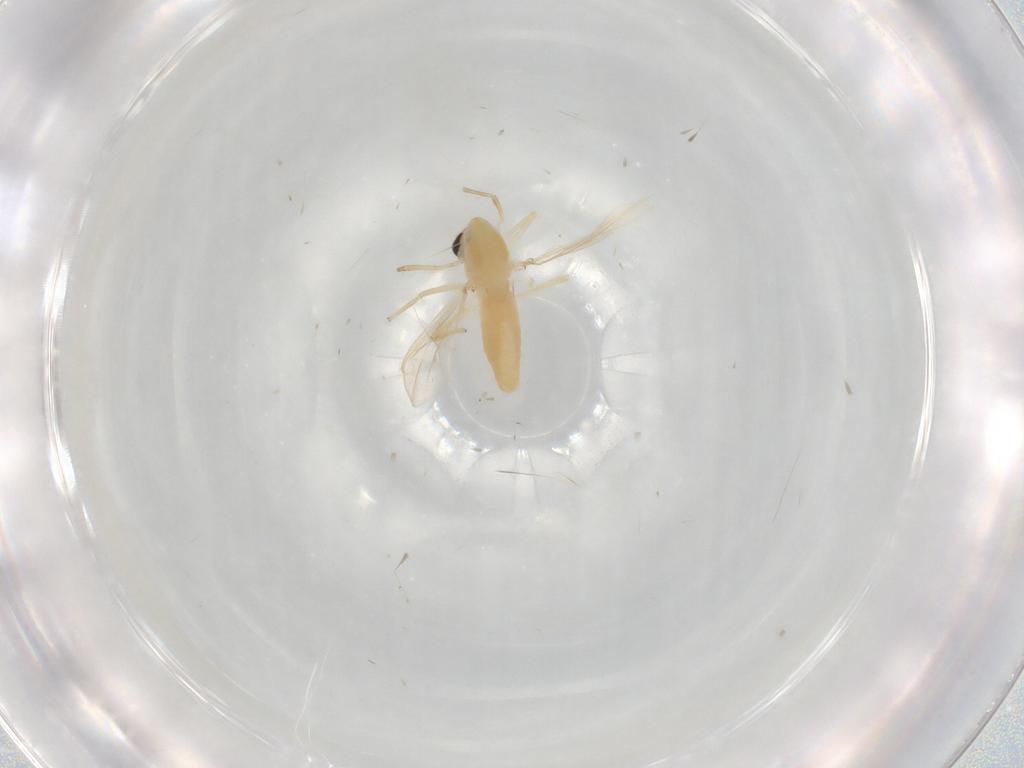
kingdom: Animalia
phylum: Arthropoda
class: Insecta
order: Diptera
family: Chironomidae
